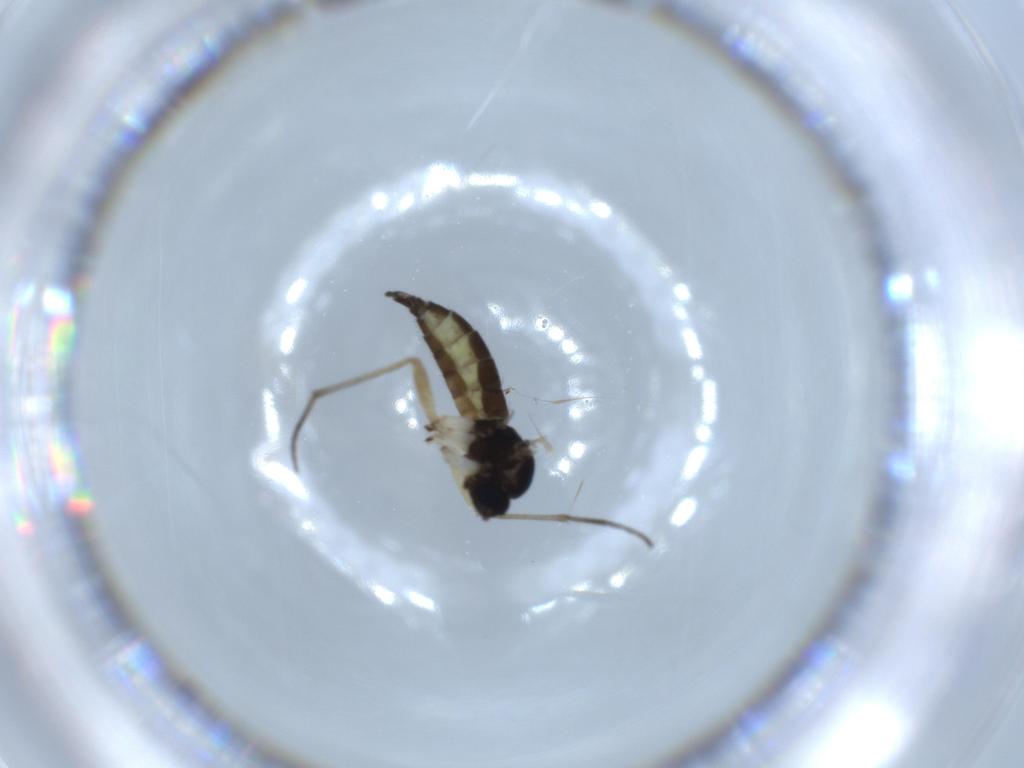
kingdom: Animalia
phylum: Arthropoda
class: Insecta
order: Diptera
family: Sciaridae
